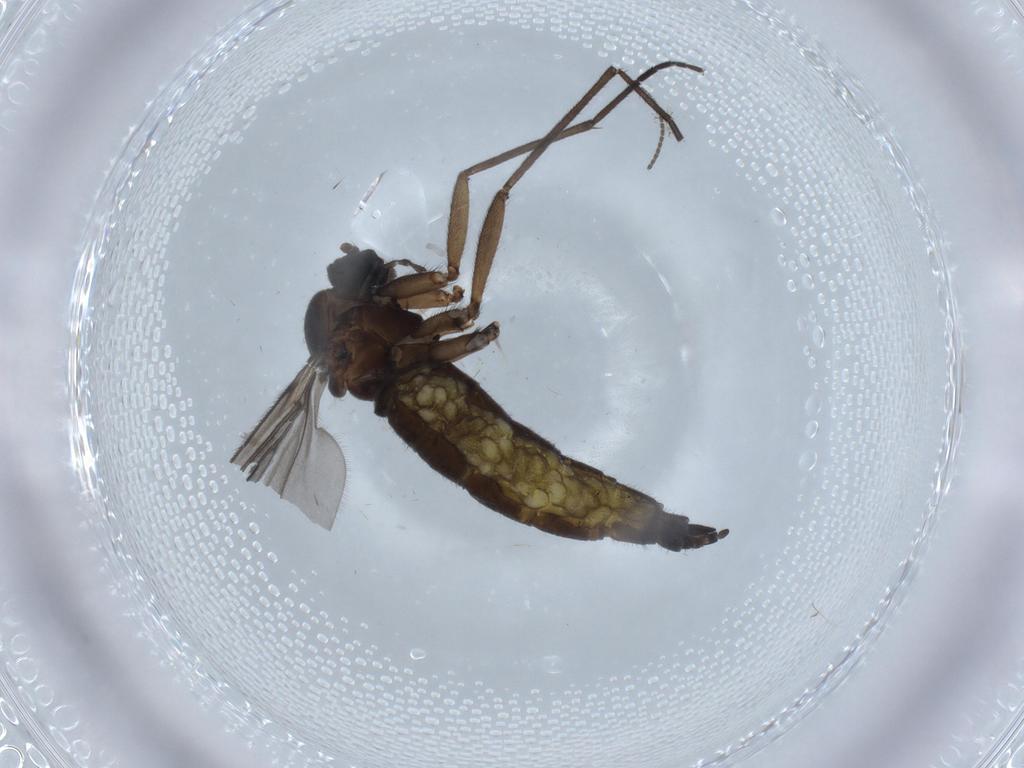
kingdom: Animalia
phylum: Arthropoda
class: Insecta
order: Diptera
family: Sciaridae
